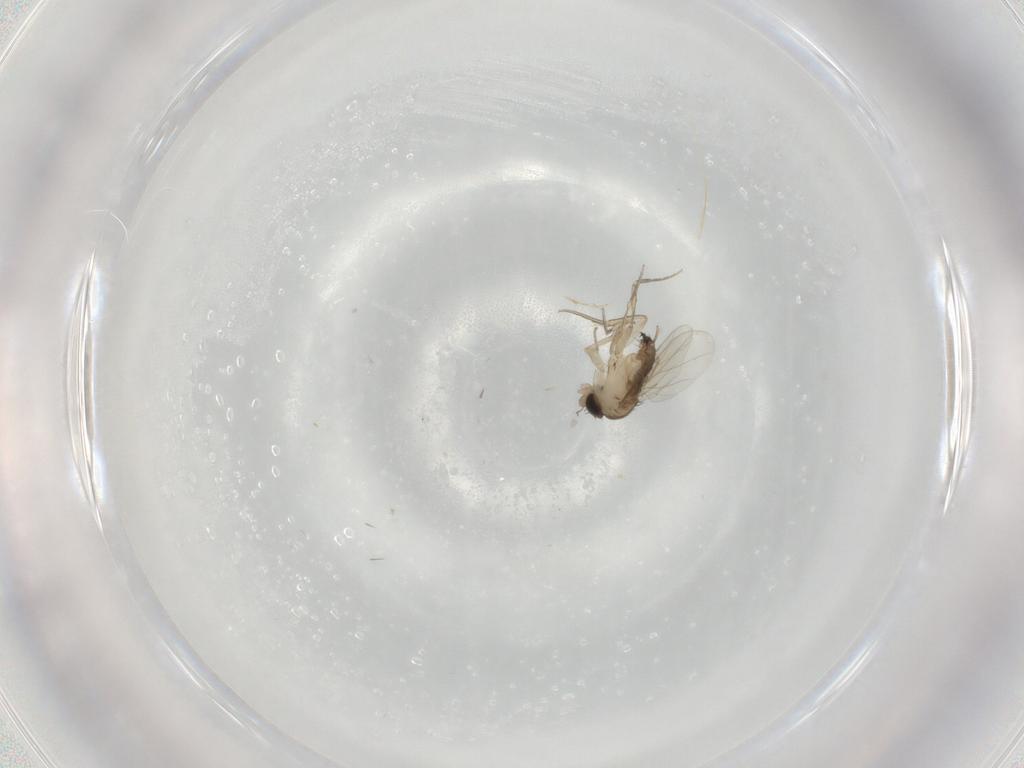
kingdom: Animalia
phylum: Arthropoda
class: Insecta
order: Diptera
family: Phoridae
